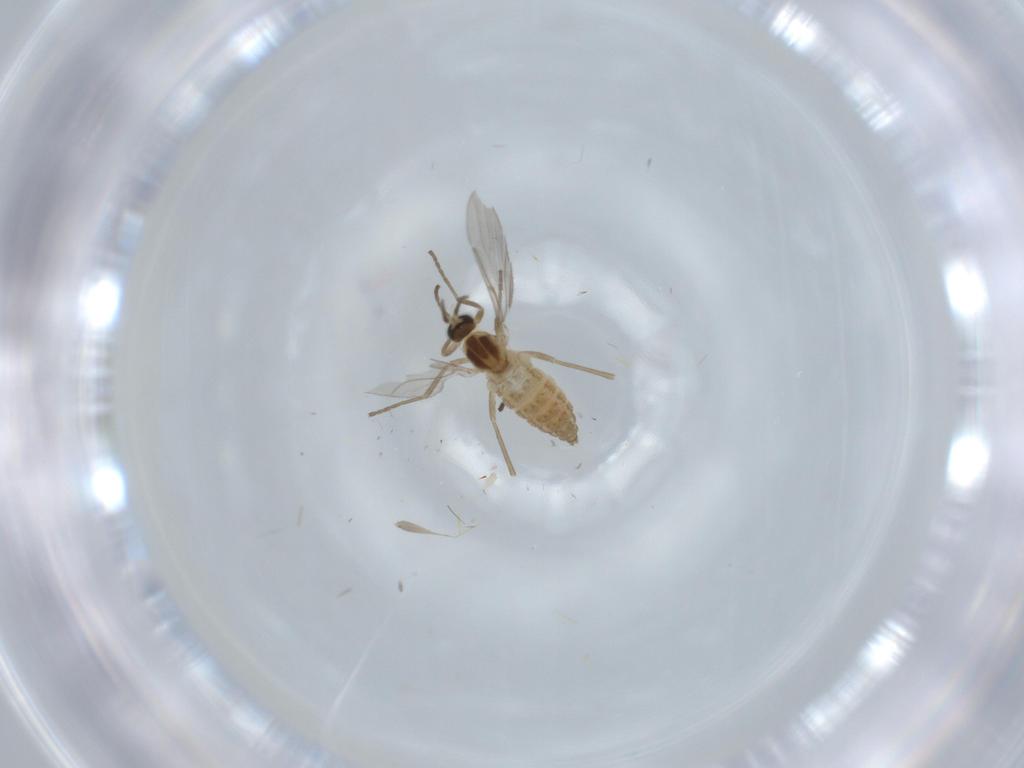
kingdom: Animalia
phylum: Arthropoda
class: Insecta
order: Diptera
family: Cecidomyiidae
